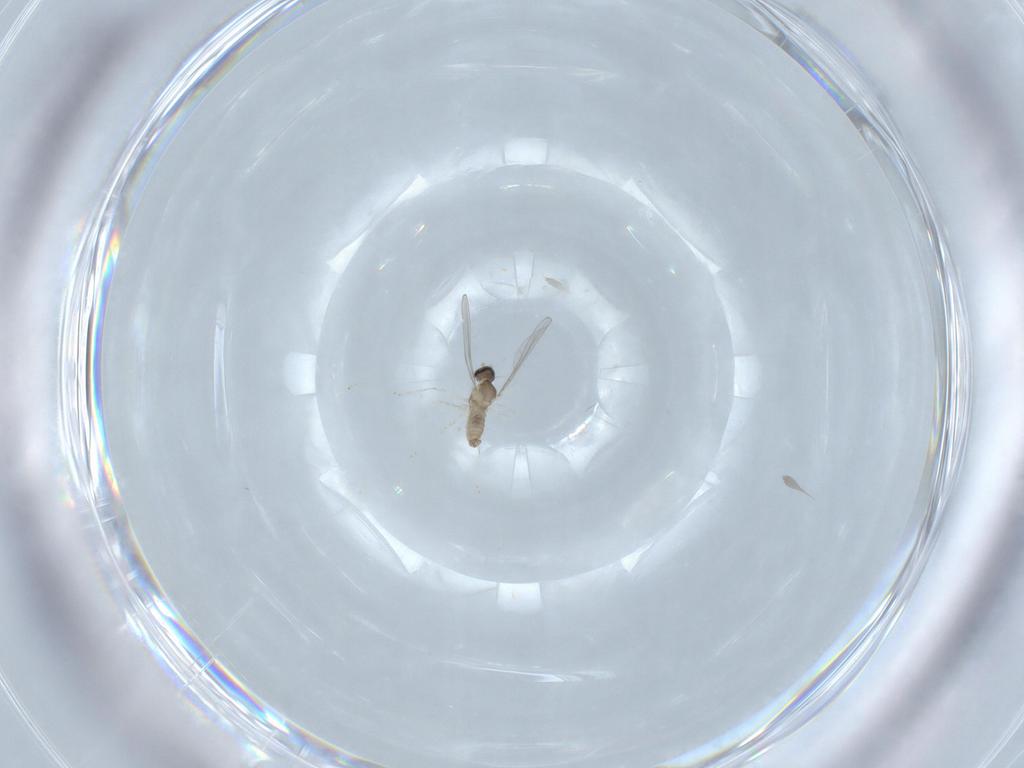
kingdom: Animalia
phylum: Arthropoda
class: Insecta
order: Diptera
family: Cecidomyiidae
